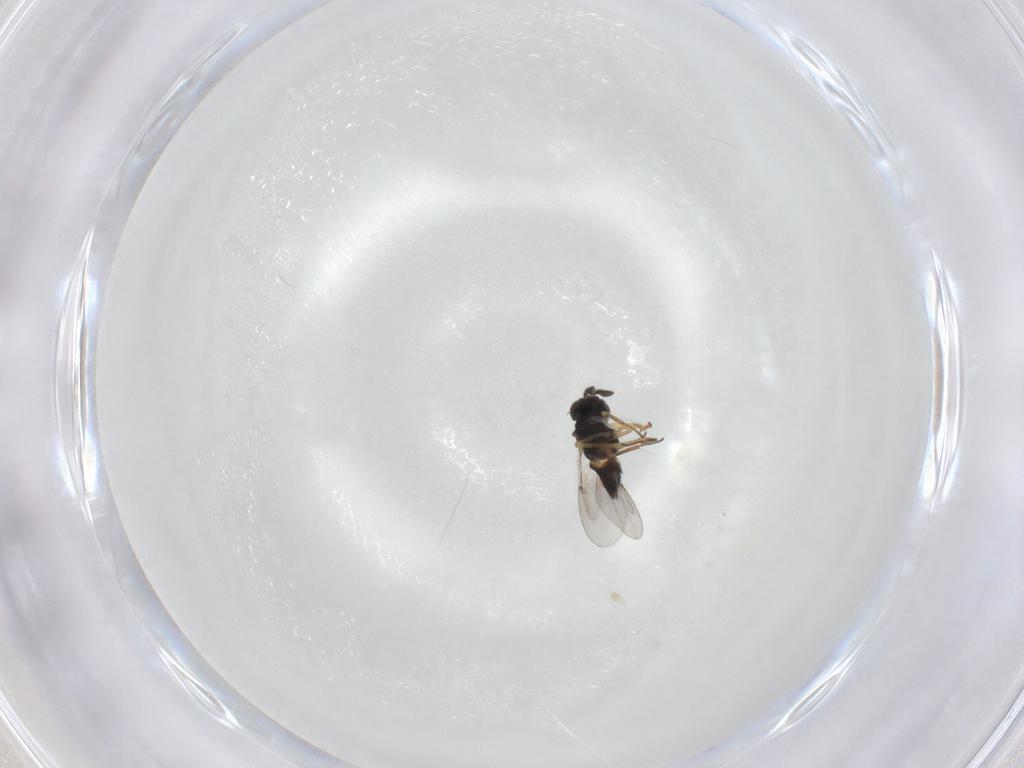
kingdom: Animalia
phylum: Arthropoda
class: Insecta
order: Hymenoptera
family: Dryinidae
